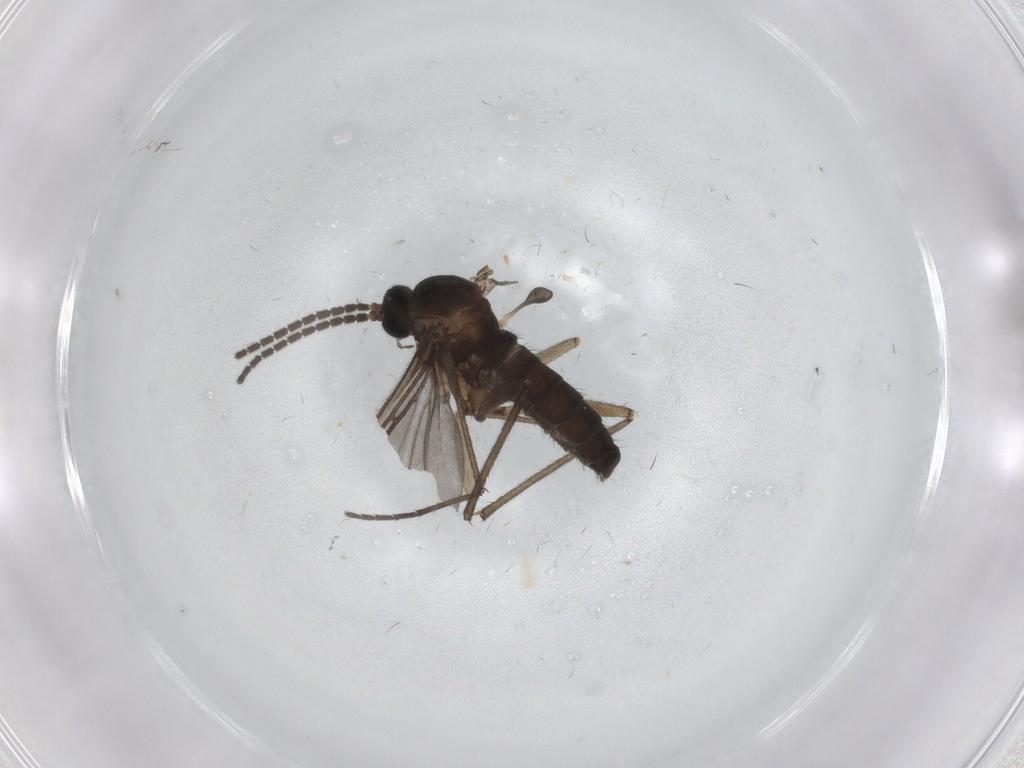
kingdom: Animalia
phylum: Arthropoda
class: Insecta
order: Diptera
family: Sciaridae
